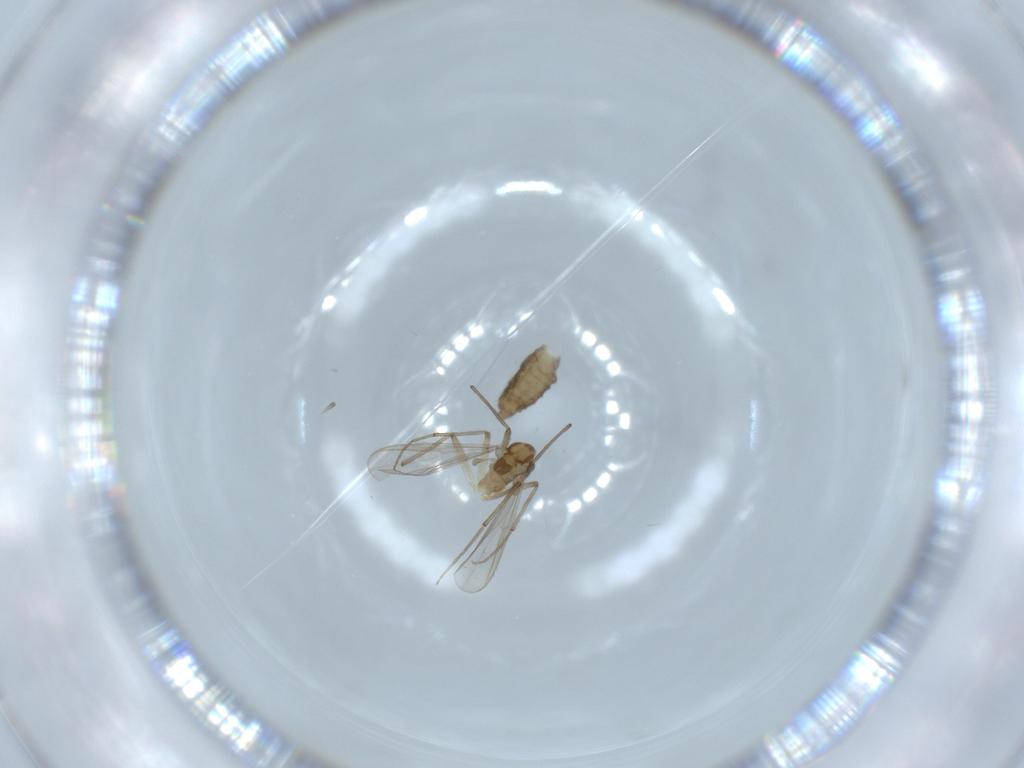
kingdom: Animalia
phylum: Arthropoda
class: Insecta
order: Diptera
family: Chironomidae
